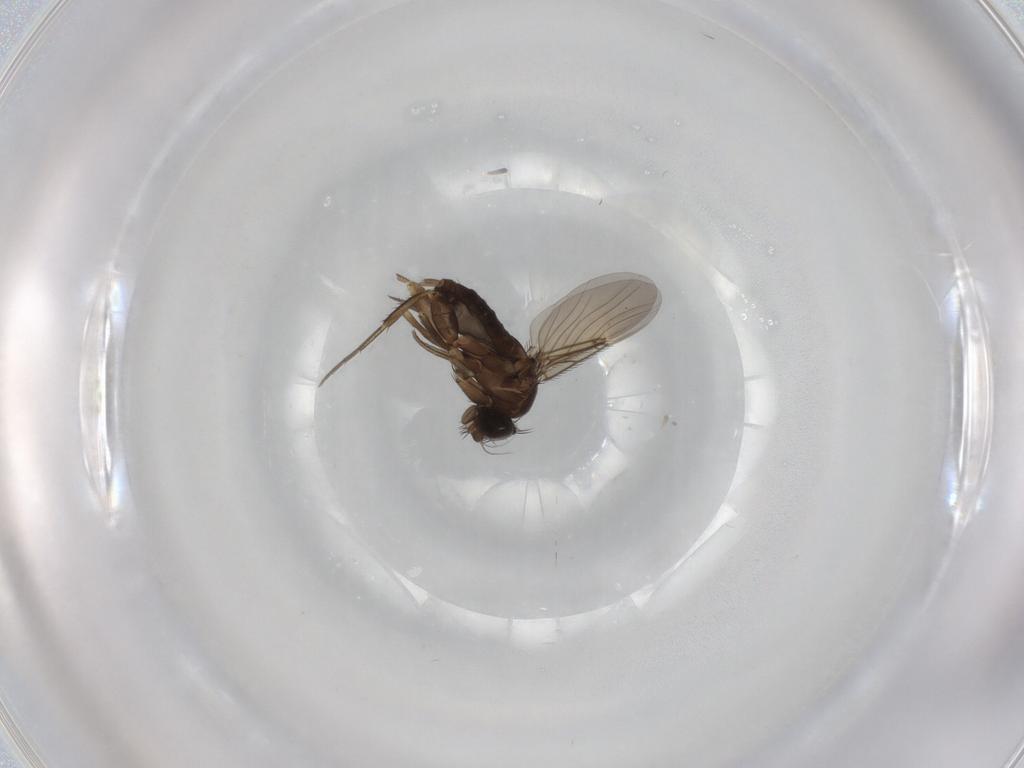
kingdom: Animalia
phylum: Arthropoda
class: Insecta
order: Diptera
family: Phoridae
